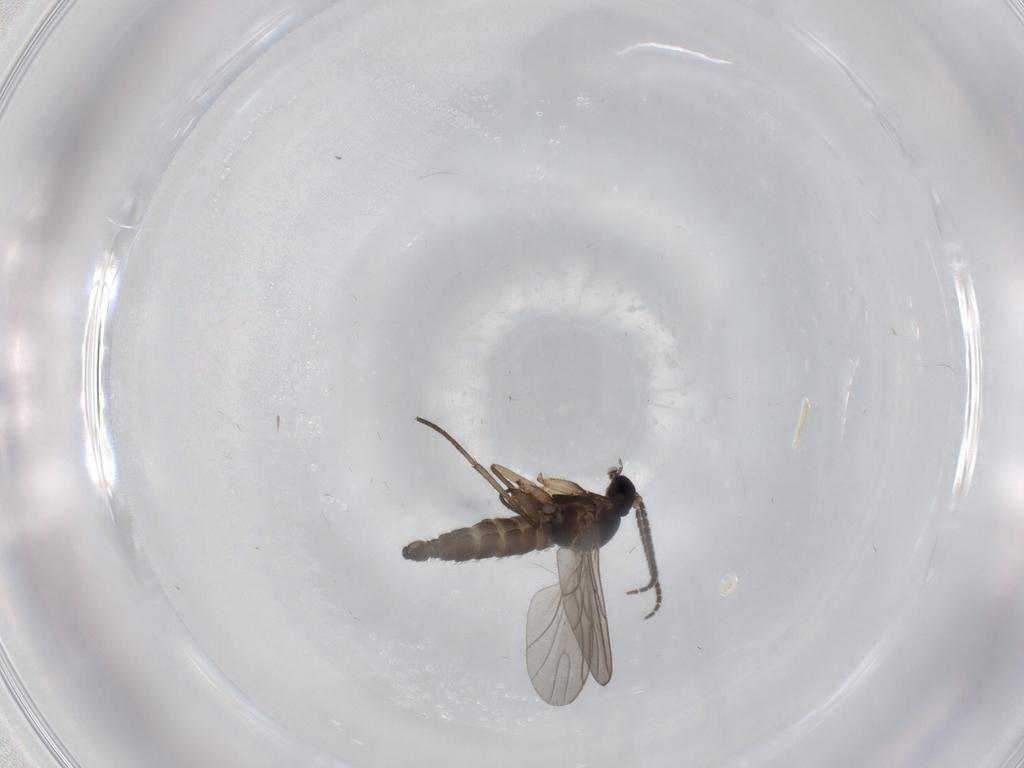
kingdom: Animalia
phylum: Arthropoda
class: Insecta
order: Diptera
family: Sciaridae
